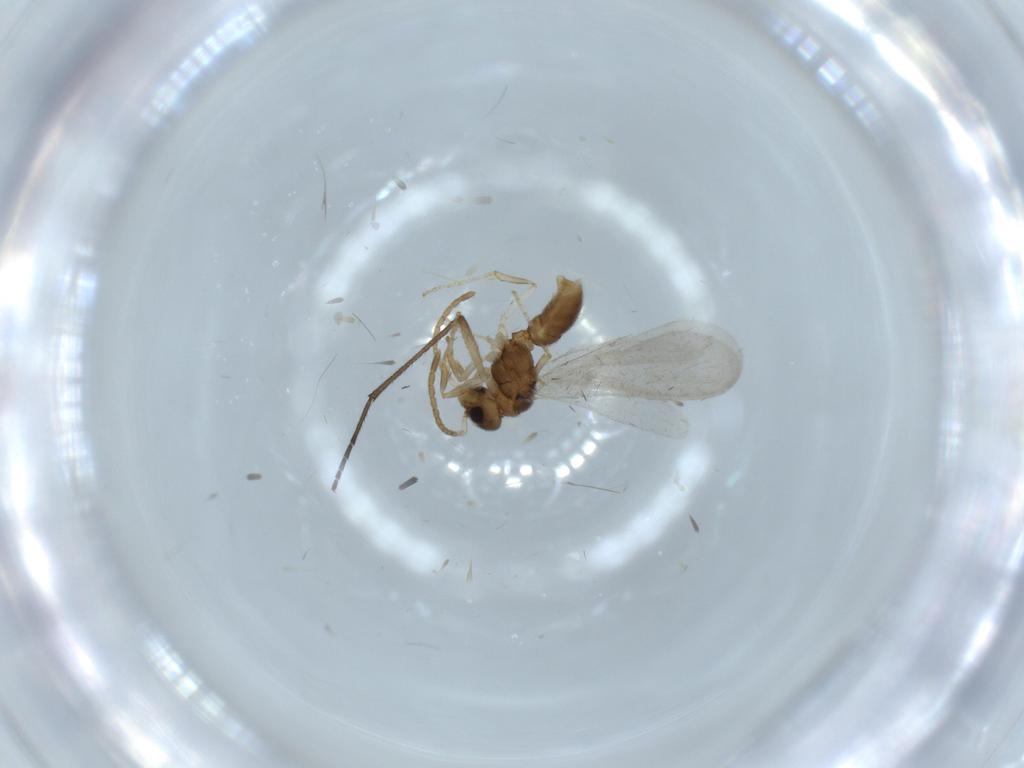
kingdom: Animalia
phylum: Arthropoda
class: Insecta
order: Hymenoptera
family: Formicidae
